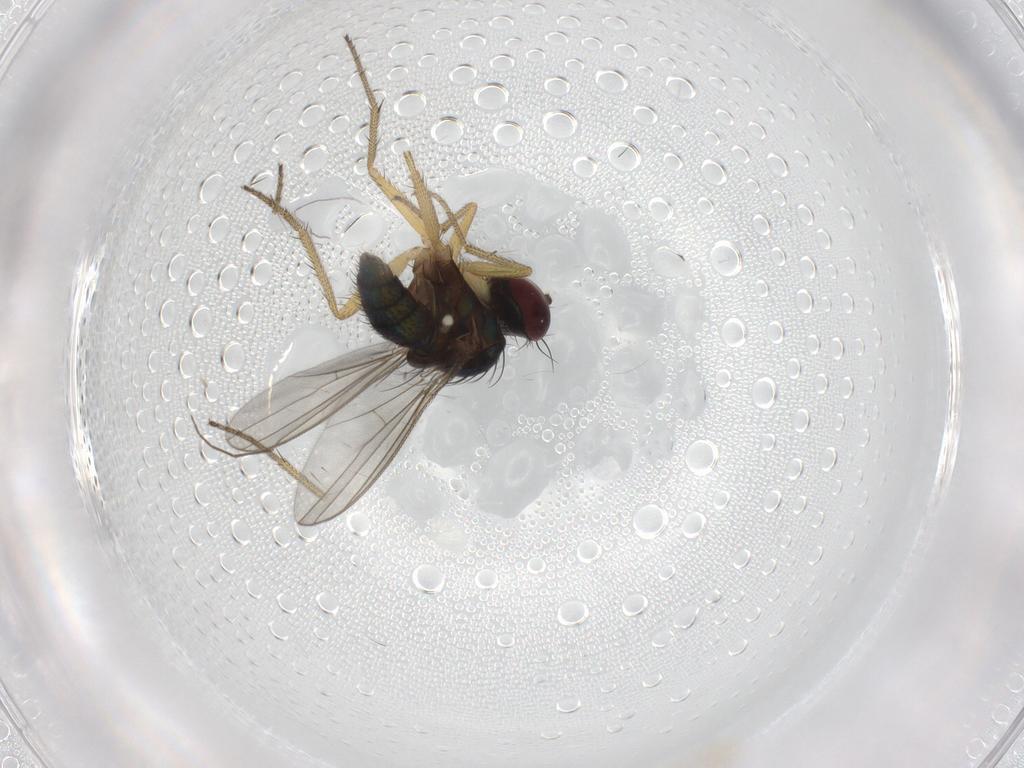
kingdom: Animalia
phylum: Arthropoda
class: Insecta
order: Diptera
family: Dolichopodidae
